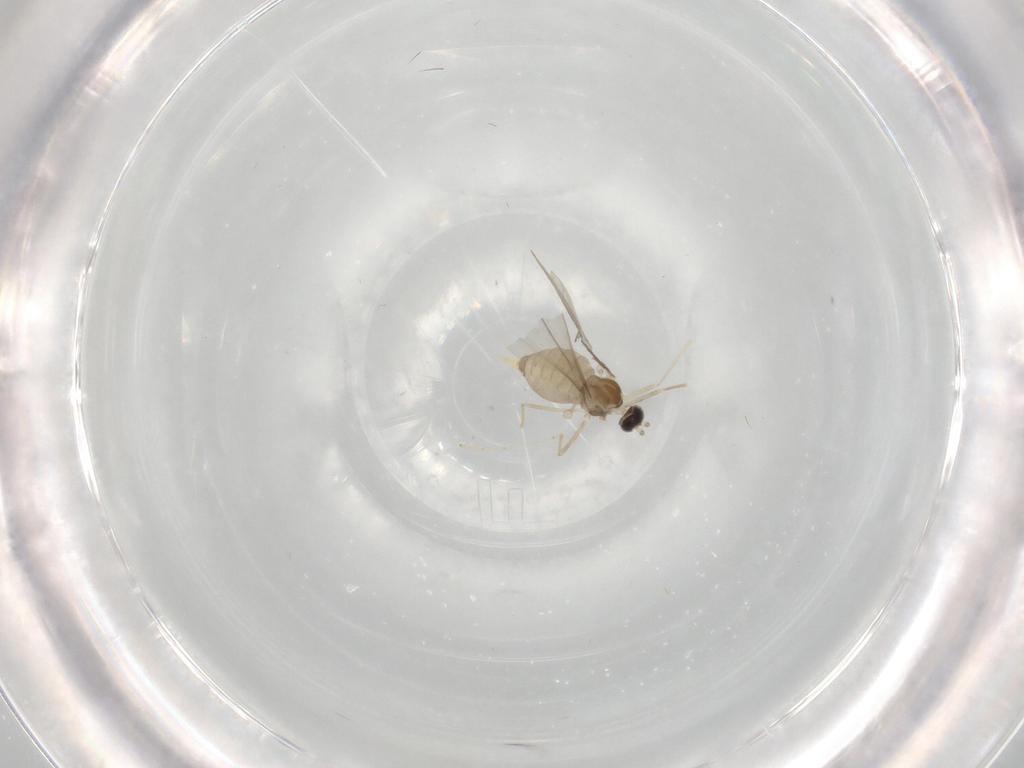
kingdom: Animalia
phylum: Arthropoda
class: Insecta
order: Diptera
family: Cecidomyiidae
